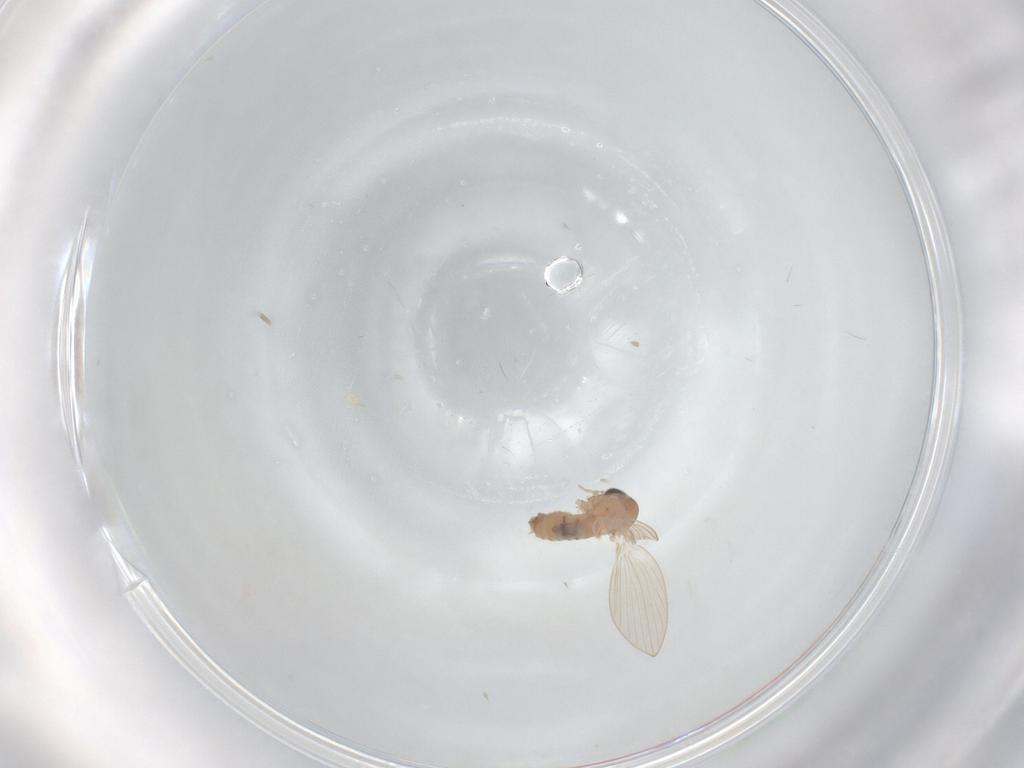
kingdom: Animalia
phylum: Arthropoda
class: Insecta
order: Diptera
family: Psychodidae
